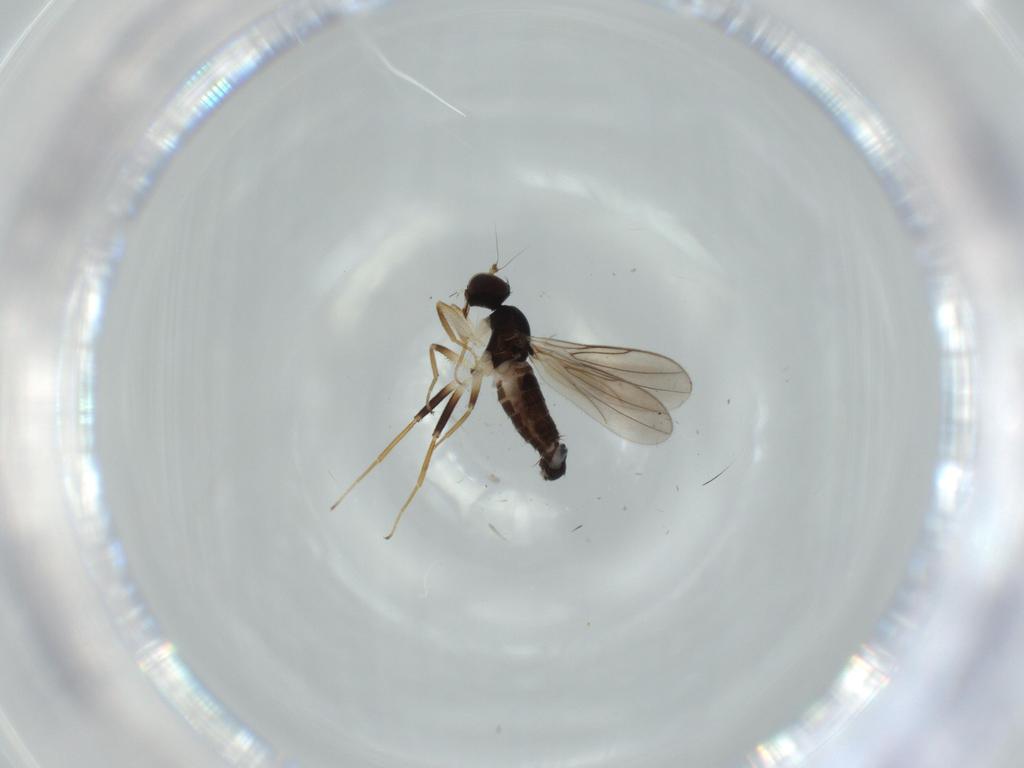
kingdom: Animalia
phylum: Arthropoda
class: Insecta
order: Diptera
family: Hybotidae
